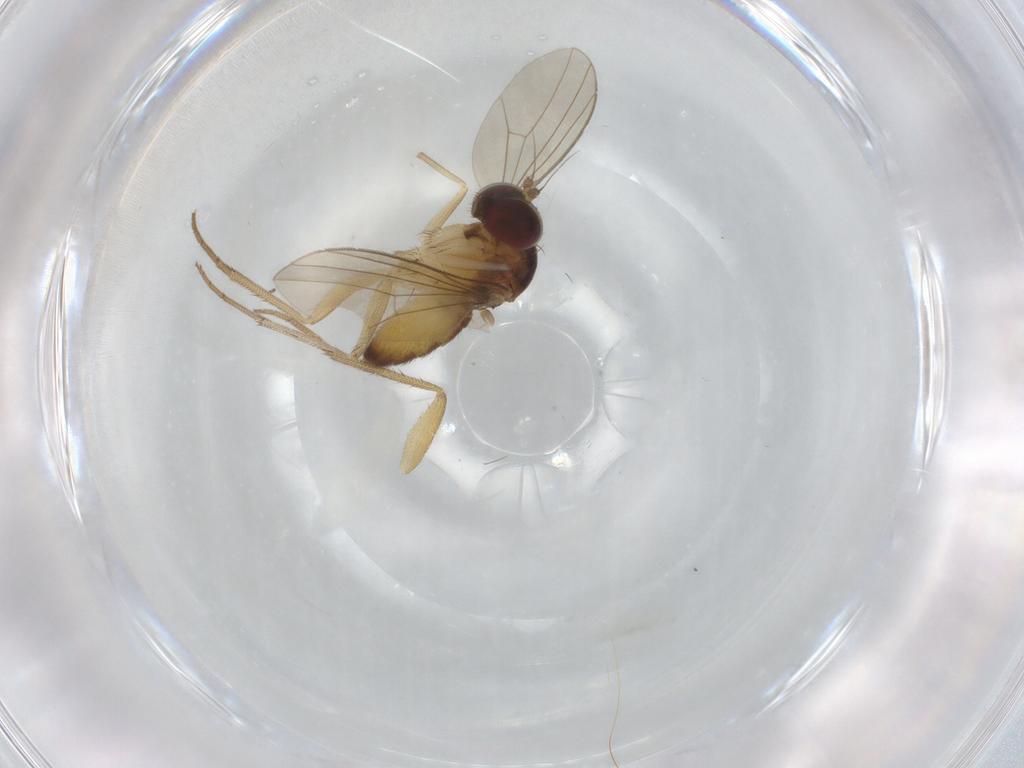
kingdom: Animalia
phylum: Arthropoda
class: Insecta
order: Diptera
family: Dolichopodidae
